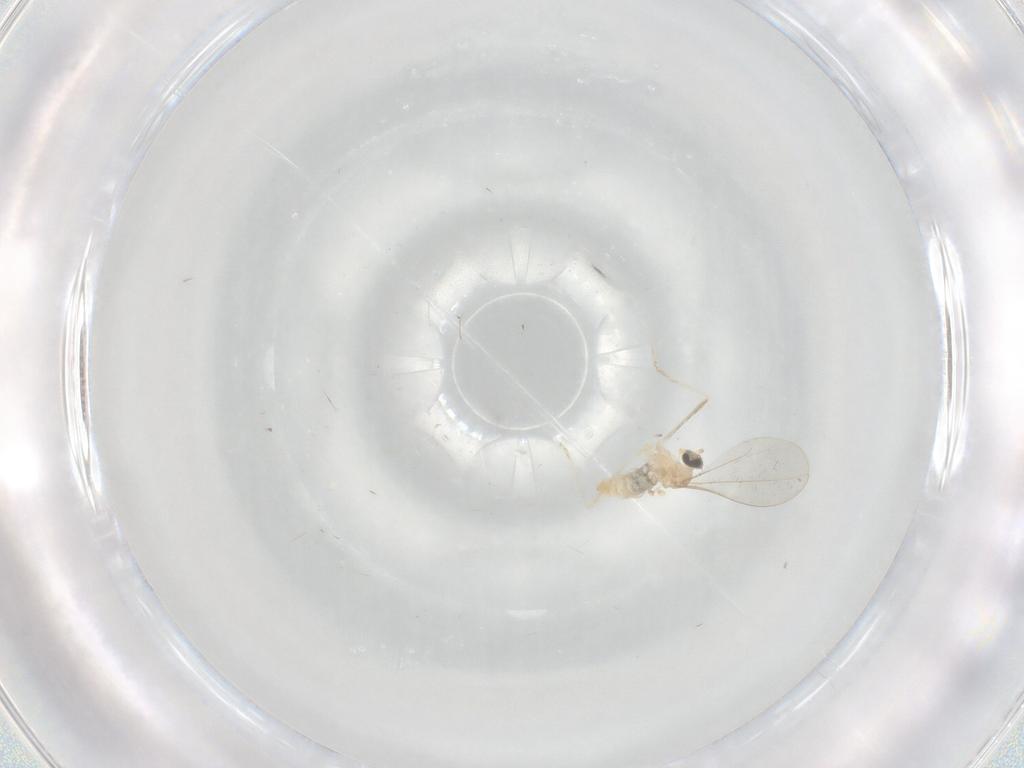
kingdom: Animalia
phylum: Arthropoda
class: Insecta
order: Diptera
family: Cecidomyiidae
